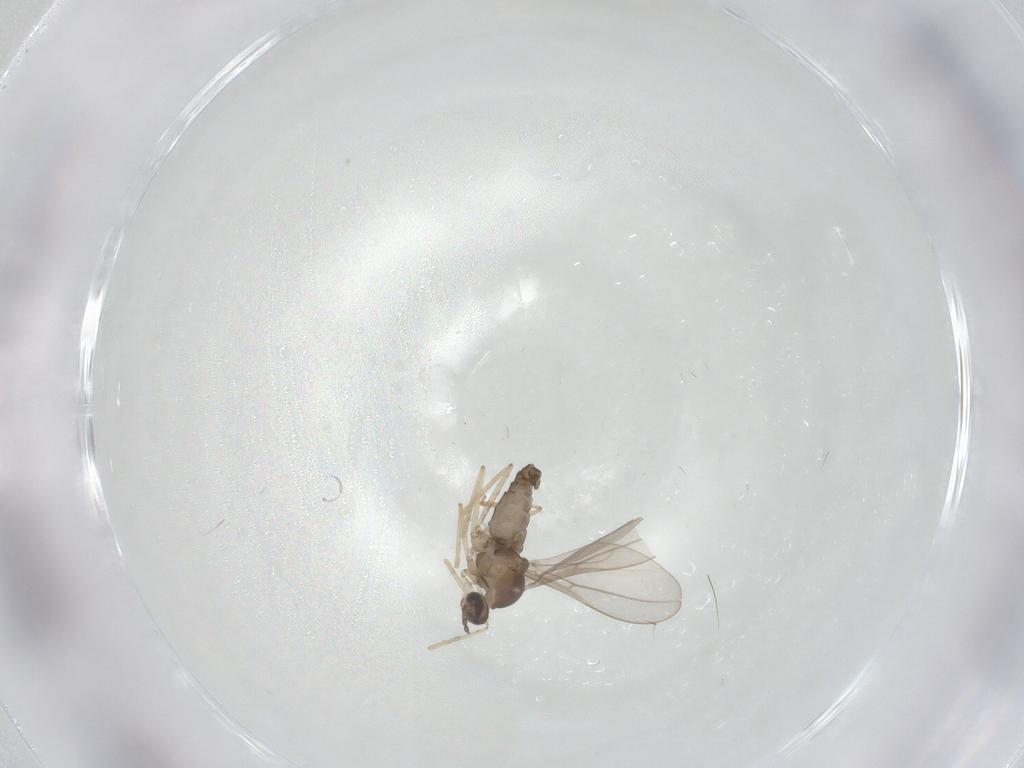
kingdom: Animalia
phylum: Arthropoda
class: Insecta
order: Diptera
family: Cecidomyiidae
